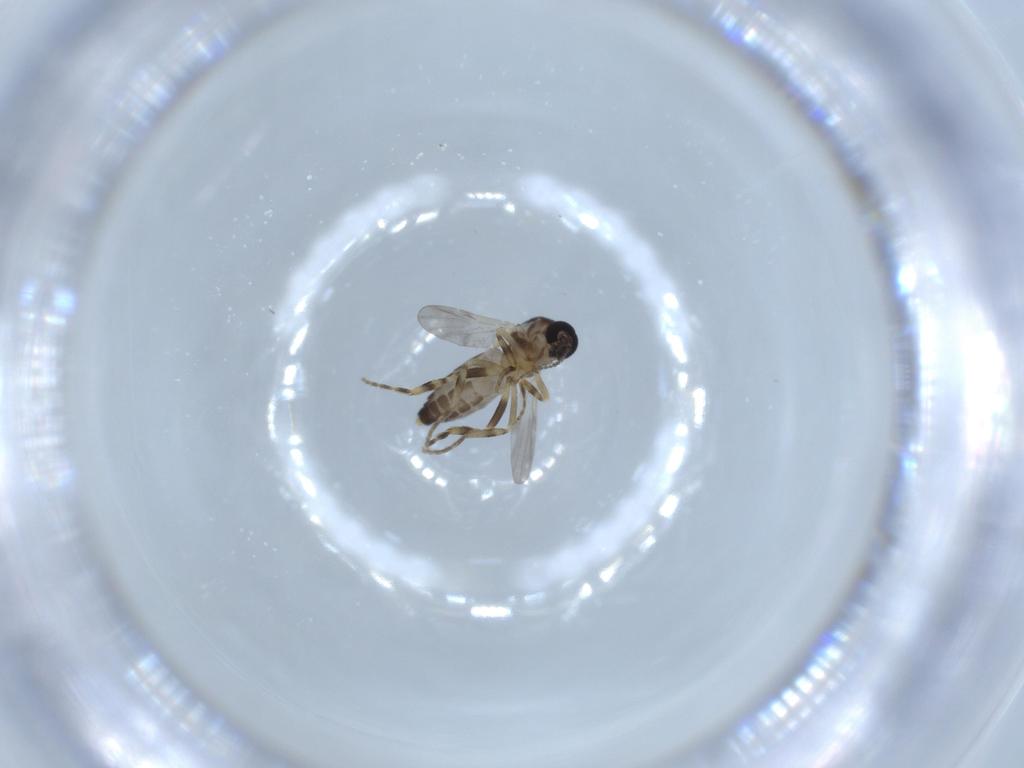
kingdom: Animalia
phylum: Arthropoda
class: Insecta
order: Diptera
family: Ceratopogonidae
